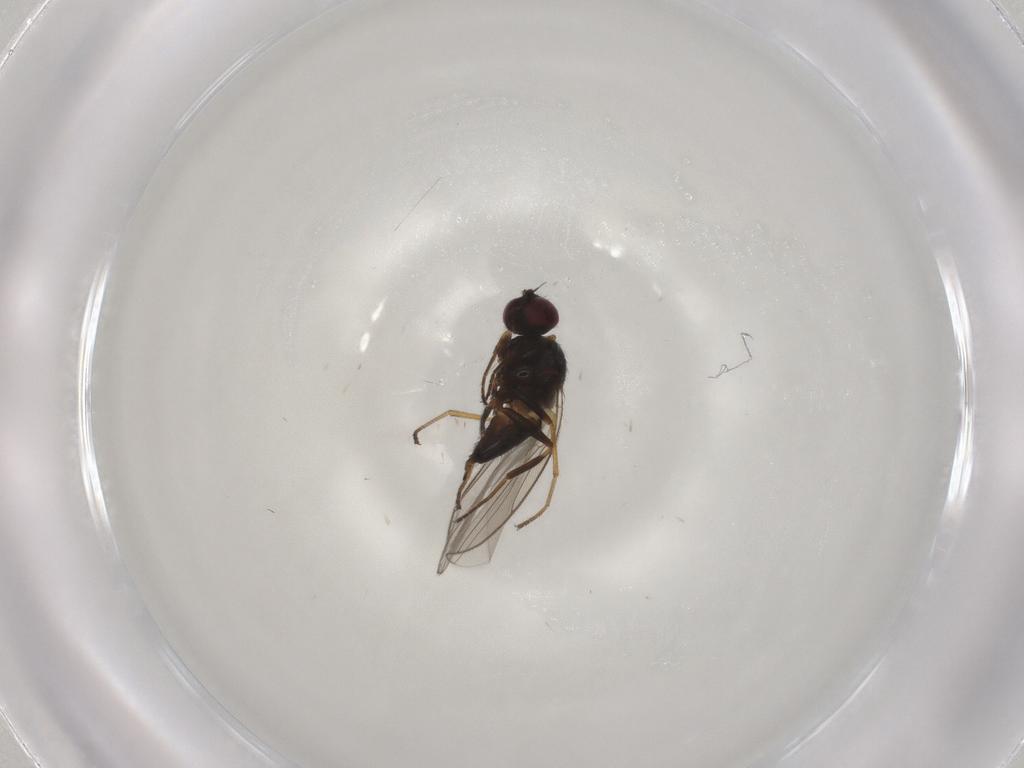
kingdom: Animalia
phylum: Arthropoda
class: Insecta
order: Diptera
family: Chloropidae
